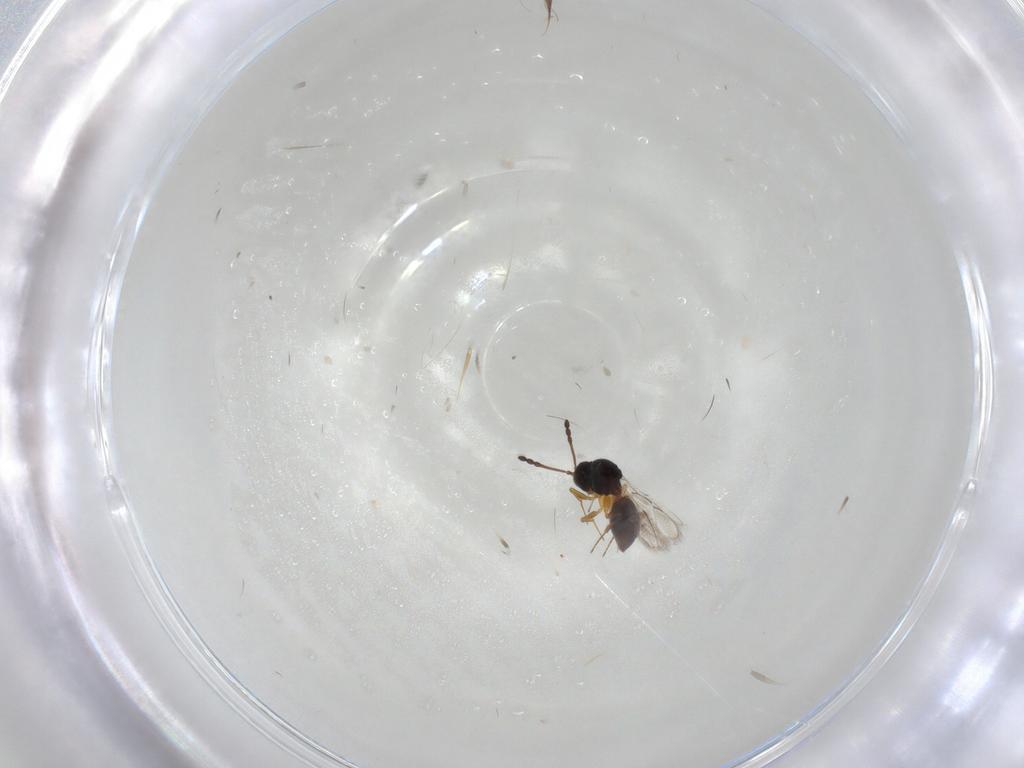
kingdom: Animalia
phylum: Arthropoda
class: Insecta
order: Hymenoptera
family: Figitidae
